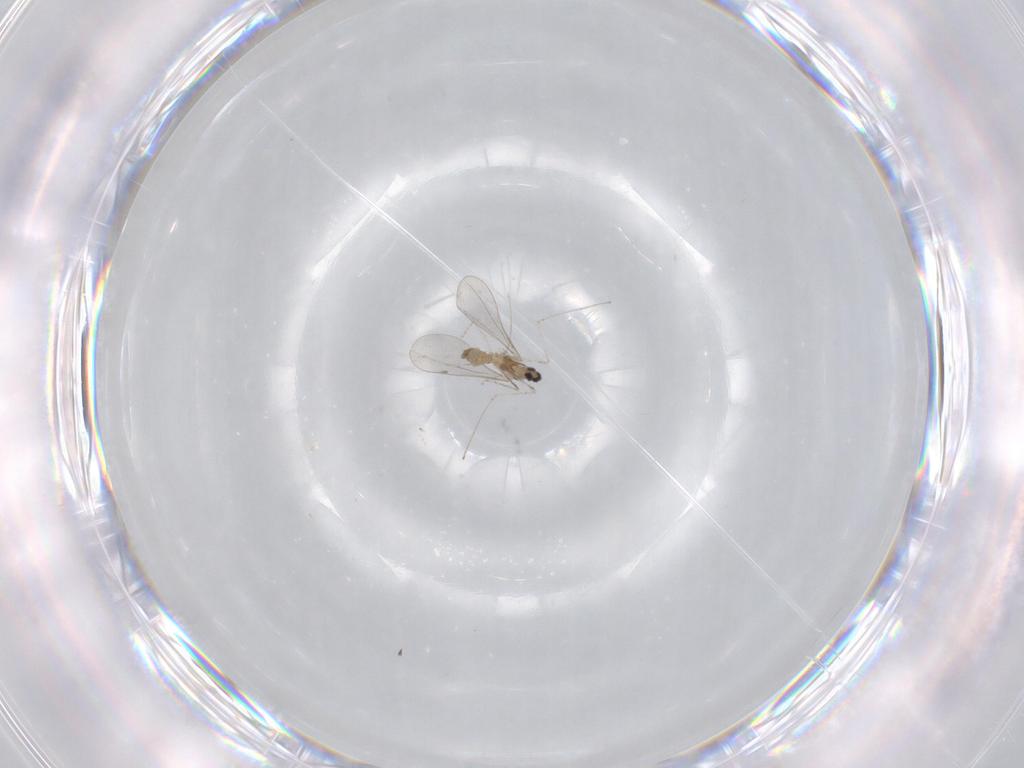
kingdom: Animalia
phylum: Arthropoda
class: Insecta
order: Diptera
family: Cecidomyiidae
